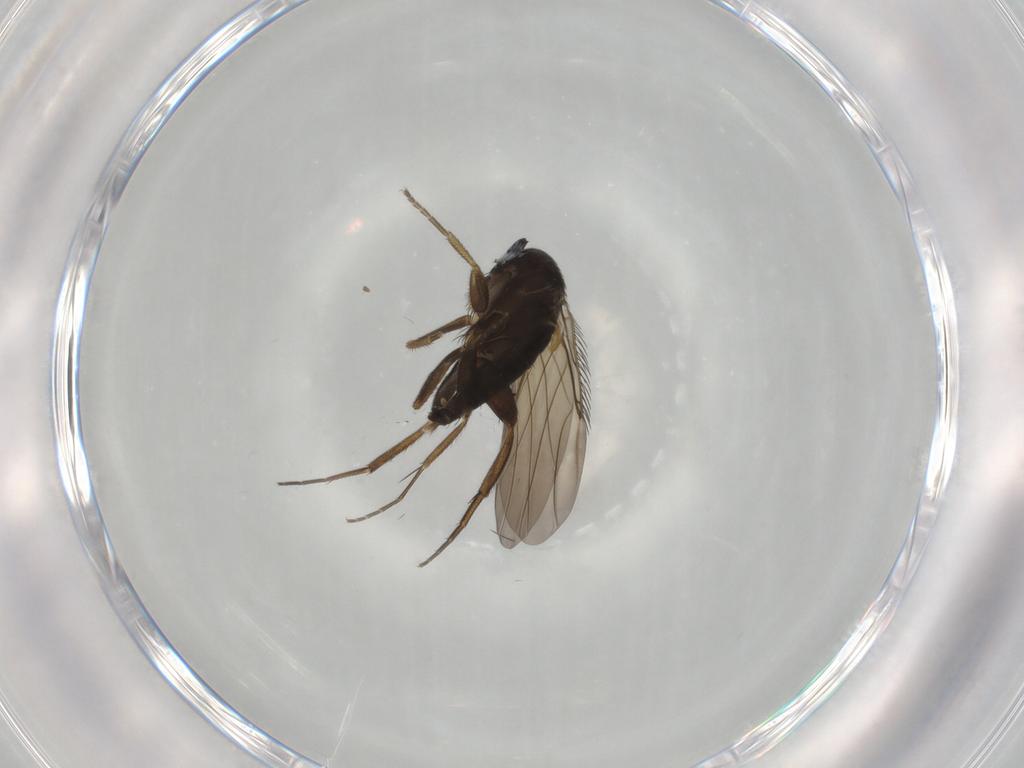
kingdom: Animalia
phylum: Arthropoda
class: Insecta
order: Diptera
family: Phoridae
